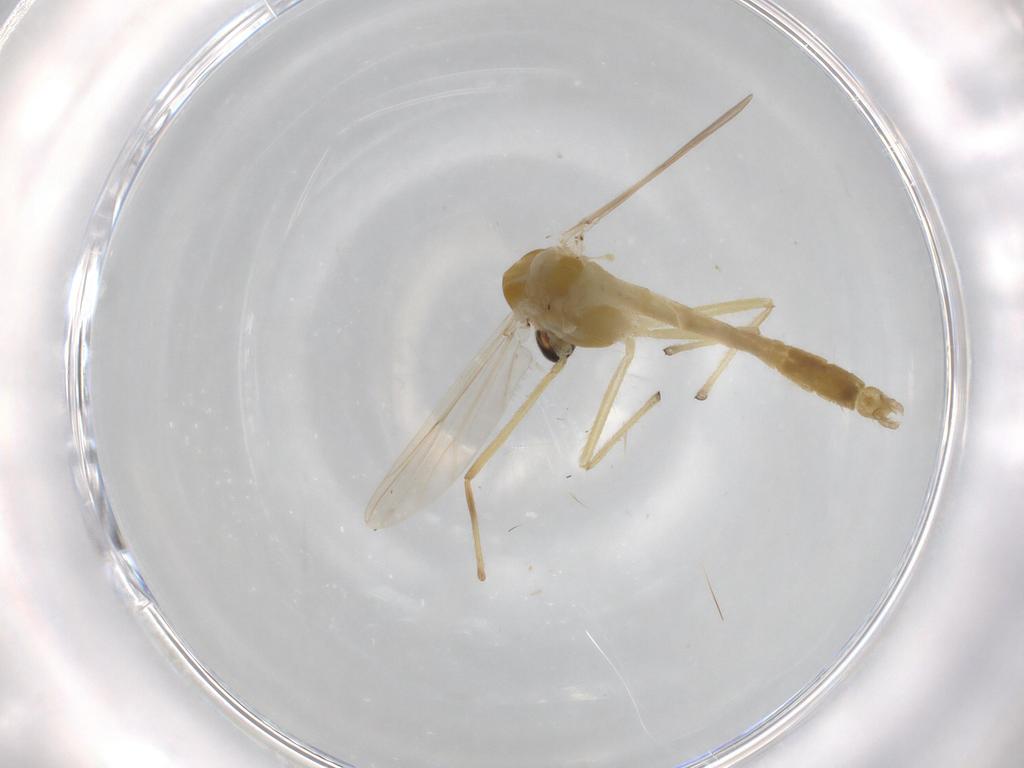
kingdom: Animalia
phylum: Arthropoda
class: Insecta
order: Diptera
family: Chironomidae
